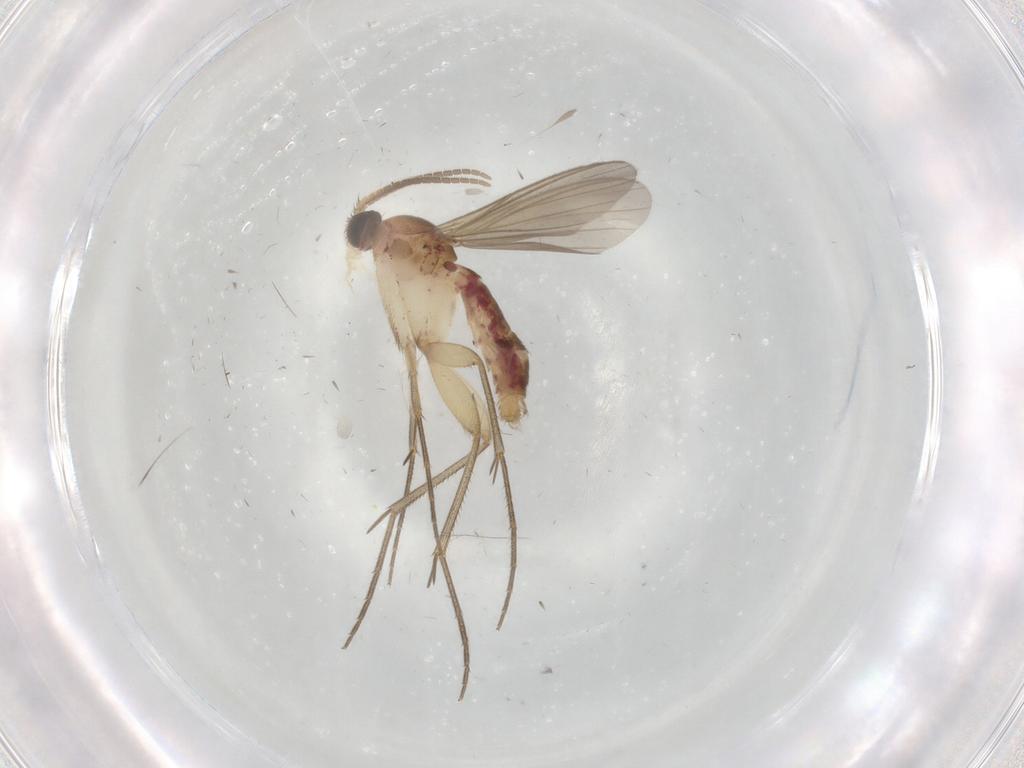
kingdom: Animalia
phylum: Arthropoda
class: Insecta
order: Diptera
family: Mycetophilidae
